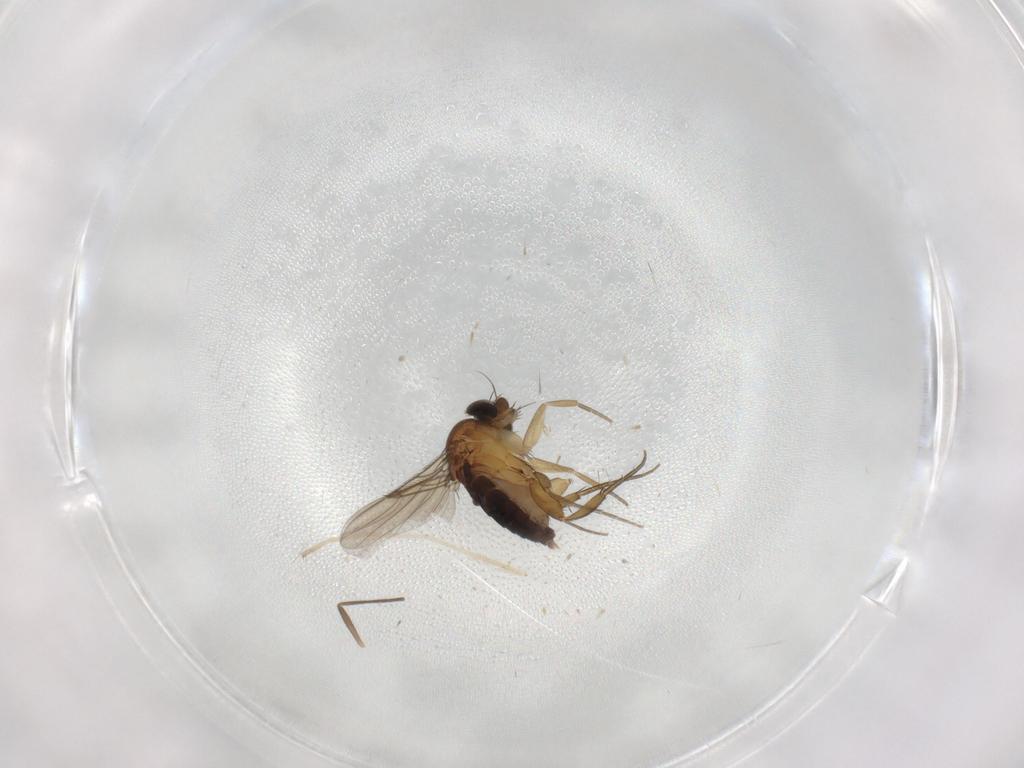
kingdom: Animalia
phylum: Arthropoda
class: Insecta
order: Diptera
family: Phoridae
